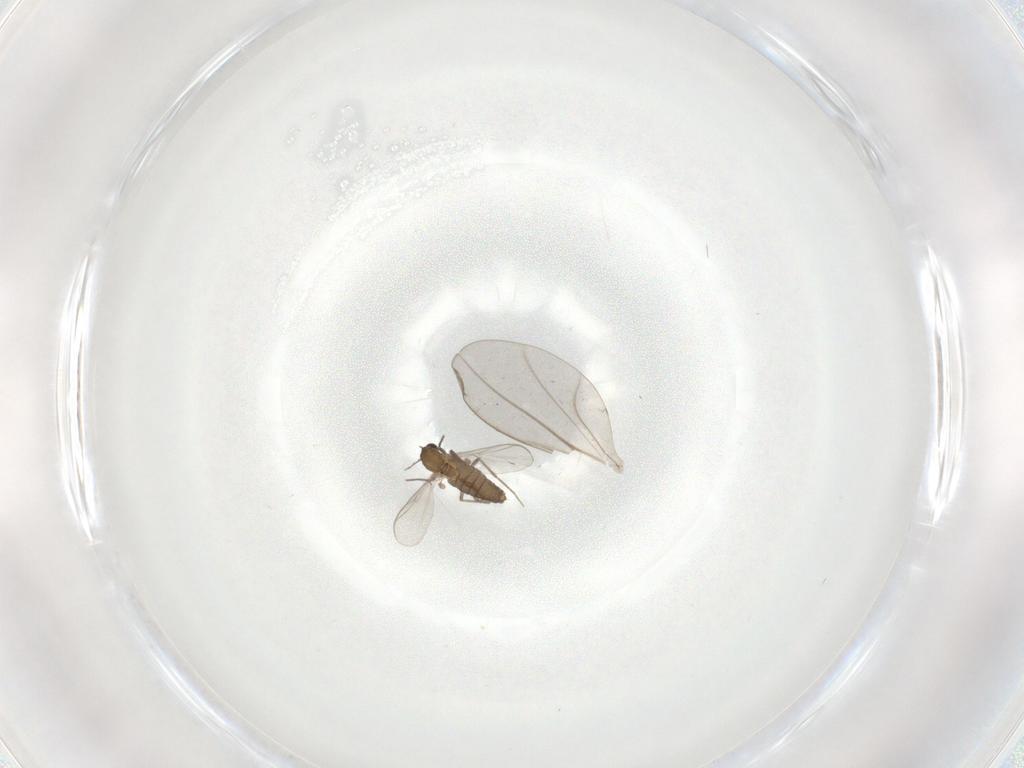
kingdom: Animalia
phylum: Arthropoda
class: Insecta
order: Diptera
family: Chironomidae
